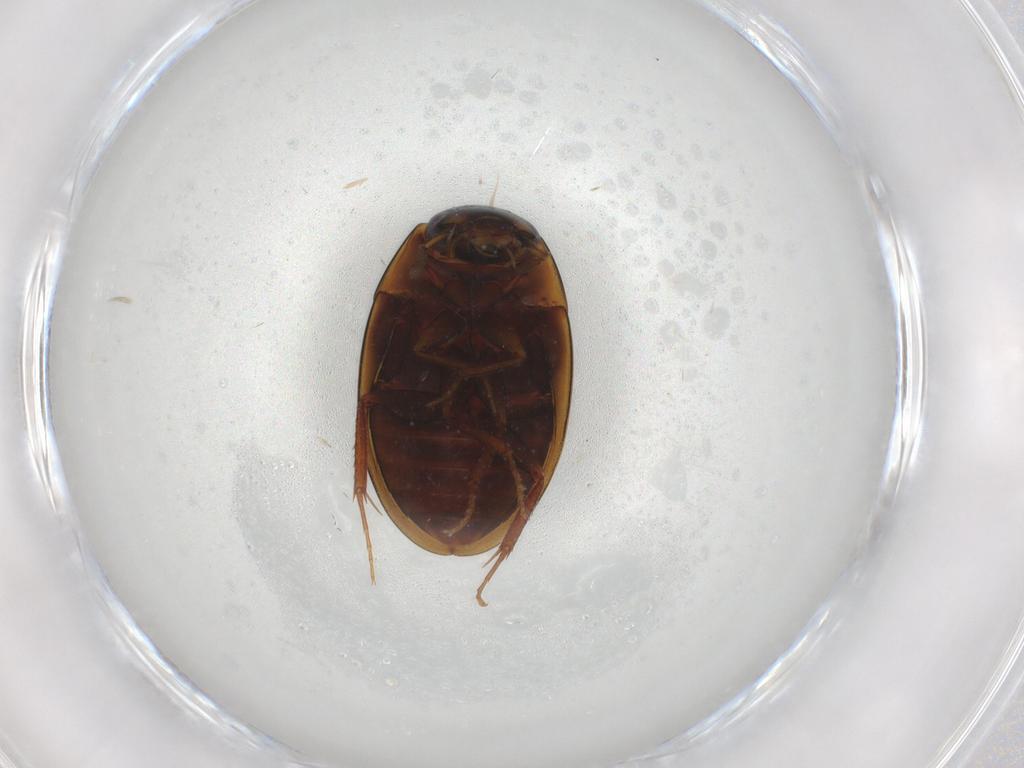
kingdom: Animalia
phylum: Arthropoda
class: Insecta
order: Coleoptera
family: Hydrophilidae
